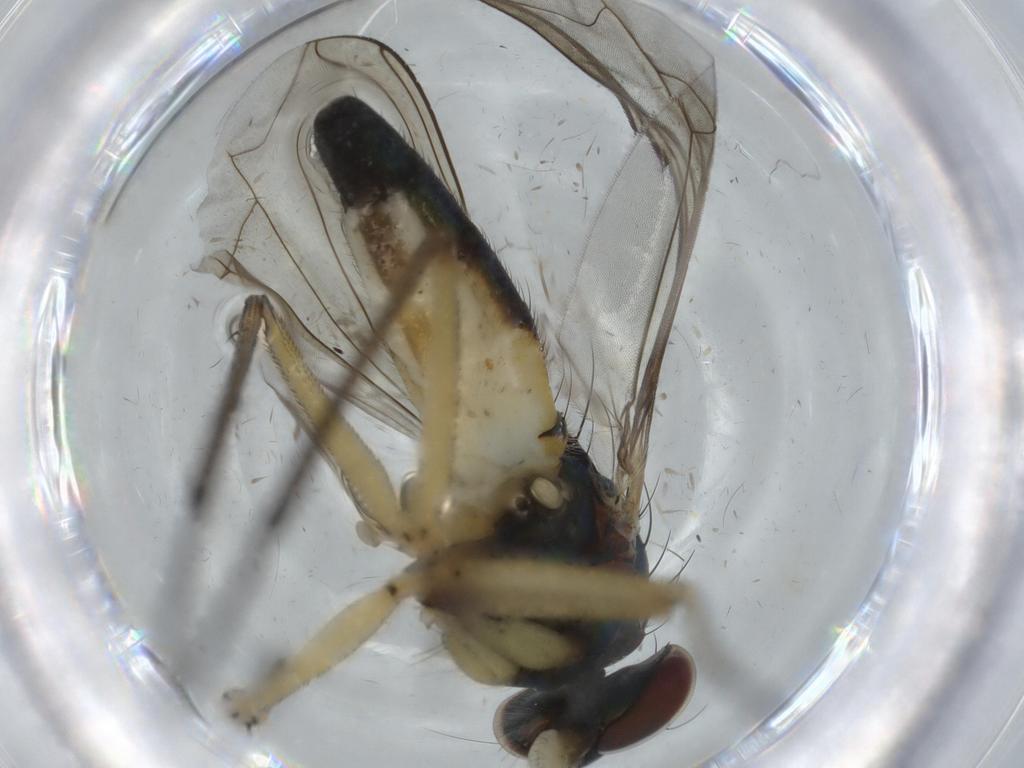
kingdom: Animalia
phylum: Arthropoda
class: Insecta
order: Diptera
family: Dolichopodidae
